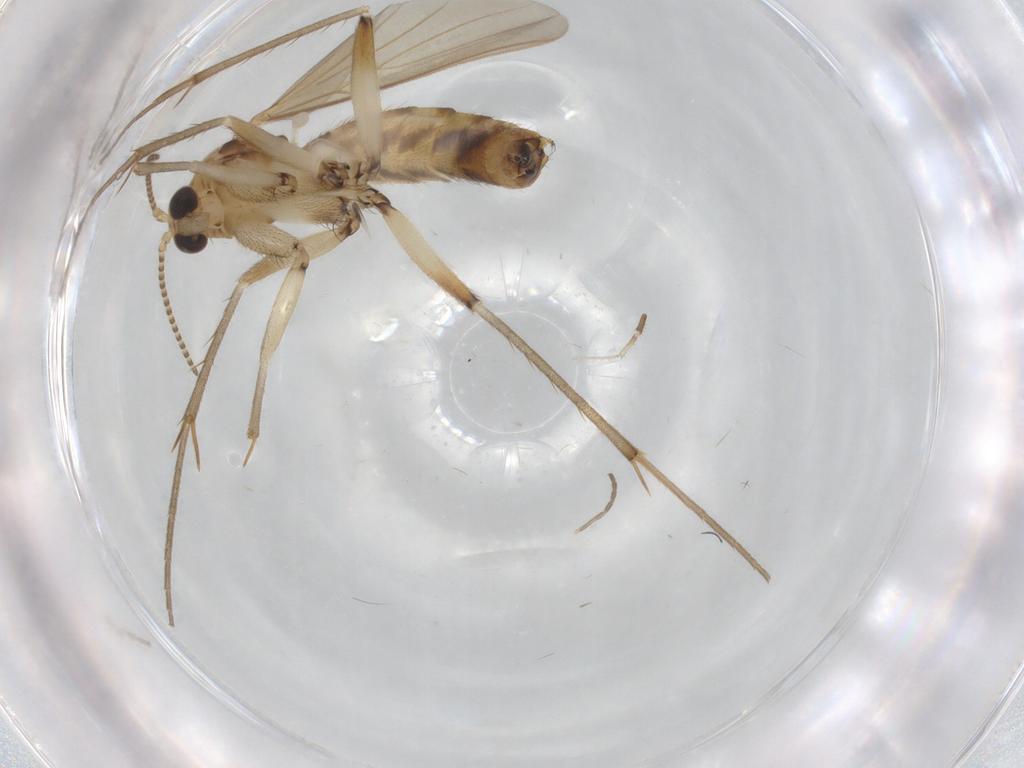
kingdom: Animalia
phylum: Arthropoda
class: Insecta
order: Diptera
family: Mycetophilidae
